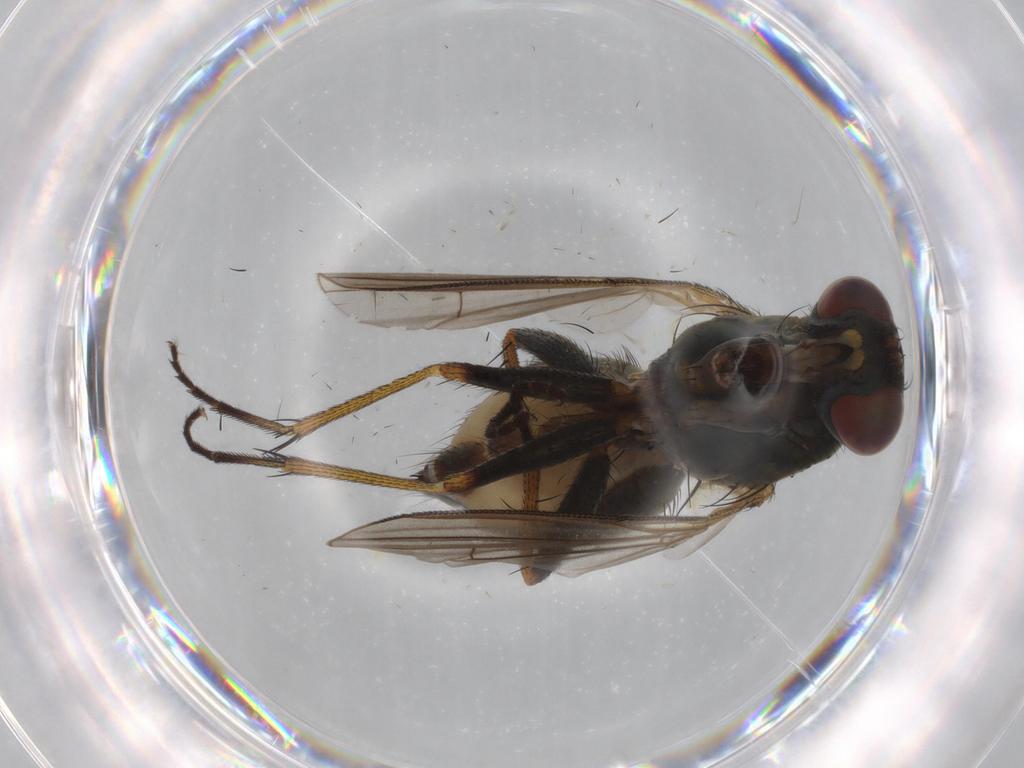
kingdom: Animalia
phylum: Arthropoda
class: Insecta
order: Diptera
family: Muscidae
